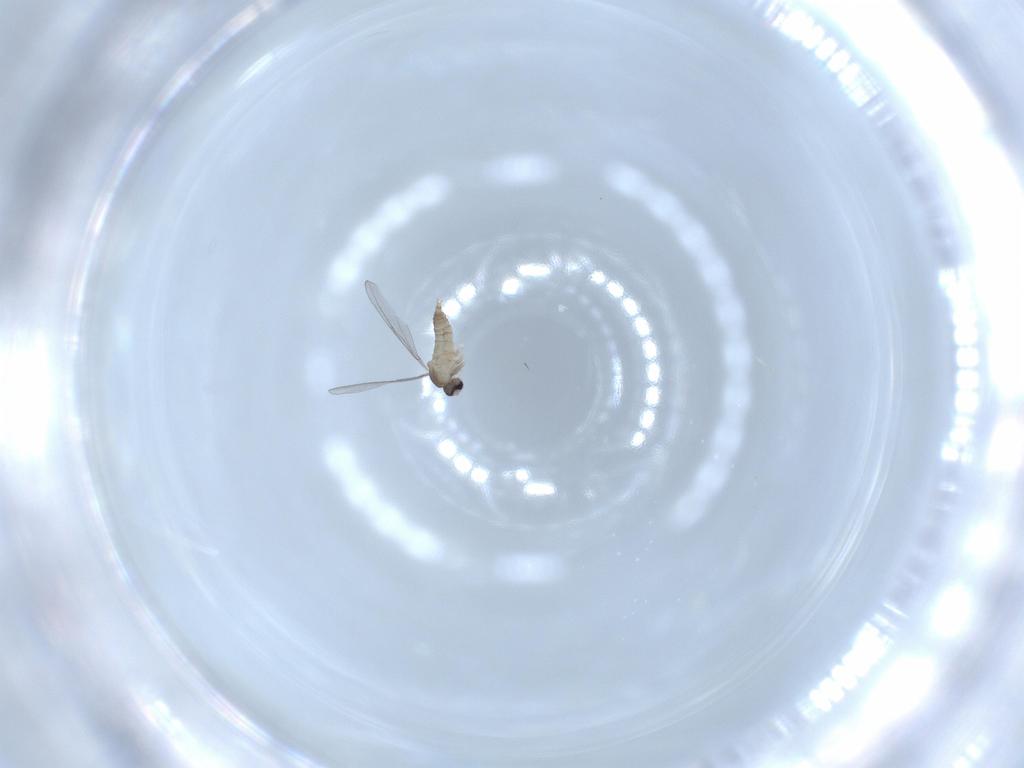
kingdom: Animalia
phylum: Arthropoda
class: Insecta
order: Diptera
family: Cecidomyiidae
